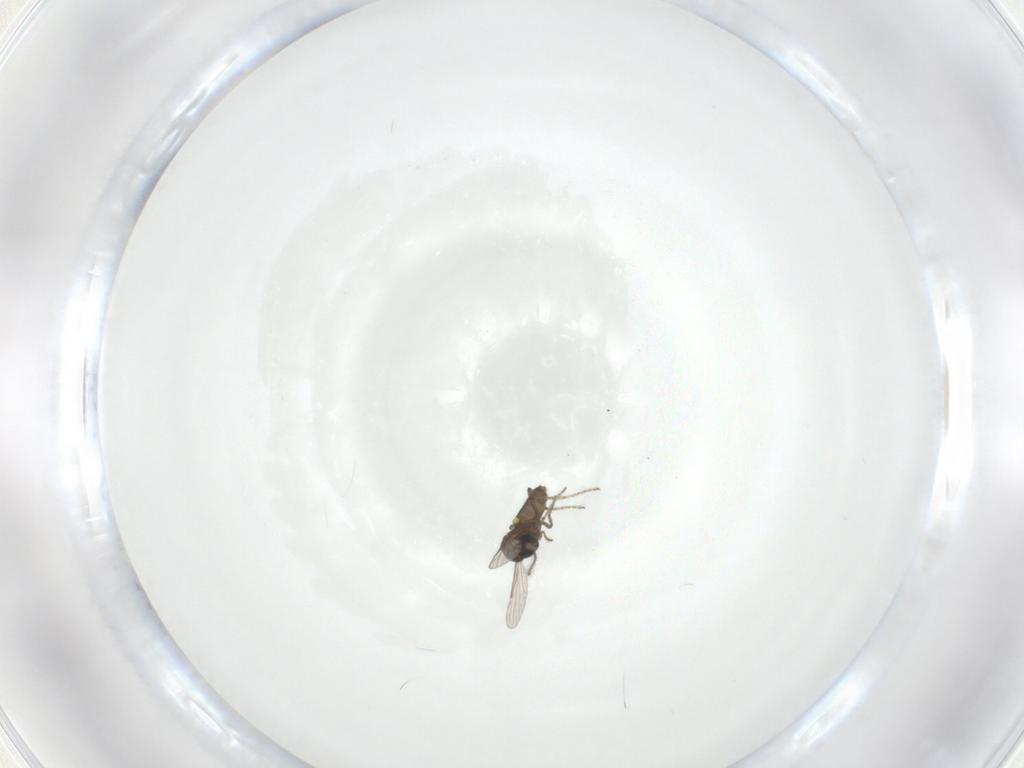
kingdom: Animalia
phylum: Arthropoda
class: Insecta
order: Diptera
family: Ceratopogonidae
